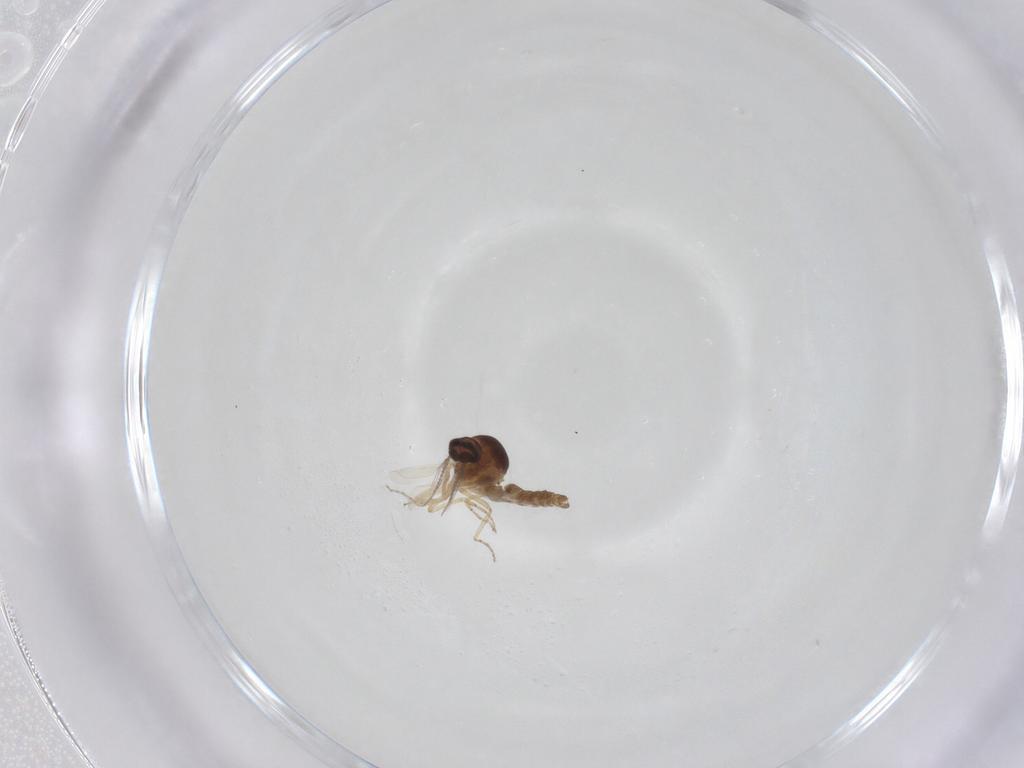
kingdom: Animalia
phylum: Arthropoda
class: Insecta
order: Diptera
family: Ceratopogonidae
